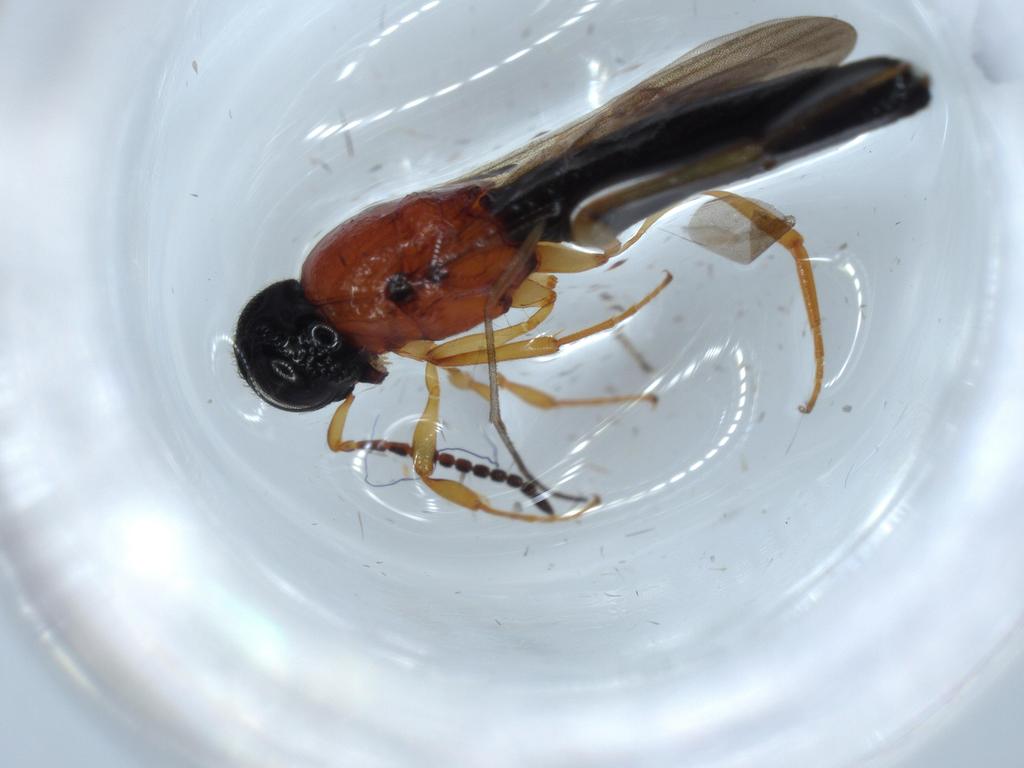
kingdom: Animalia
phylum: Arthropoda
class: Insecta
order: Hymenoptera
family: Scelionidae
